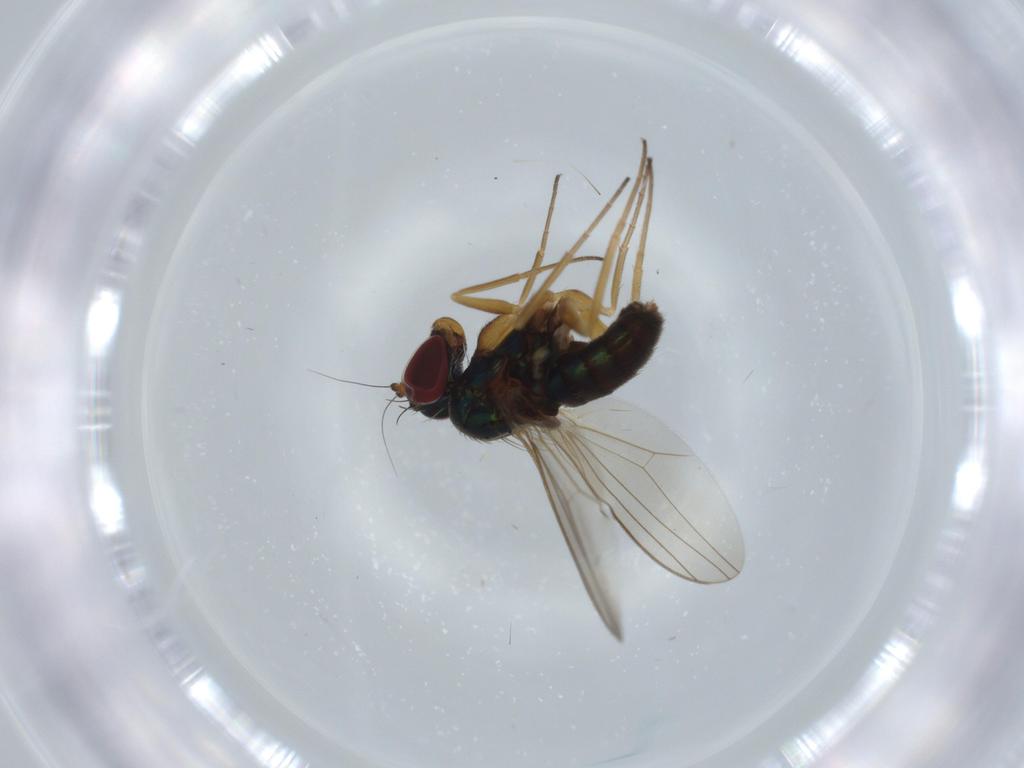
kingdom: Animalia
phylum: Arthropoda
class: Insecta
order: Diptera
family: Dolichopodidae
